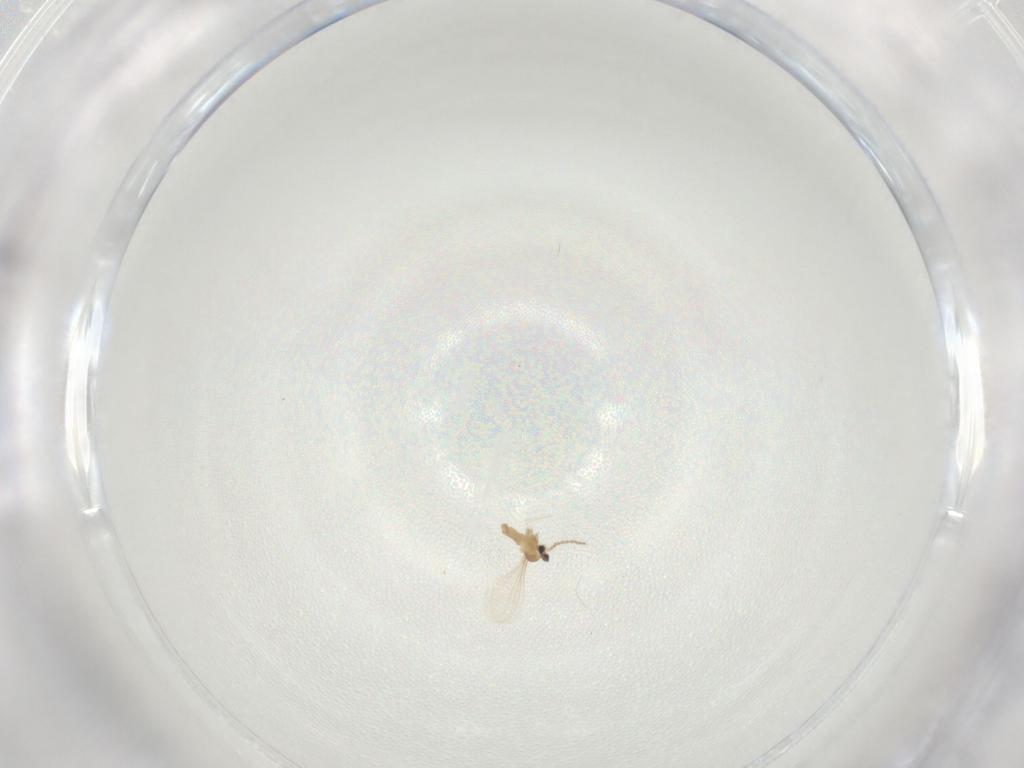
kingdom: Animalia
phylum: Arthropoda
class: Insecta
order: Diptera
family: Cecidomyiidae
